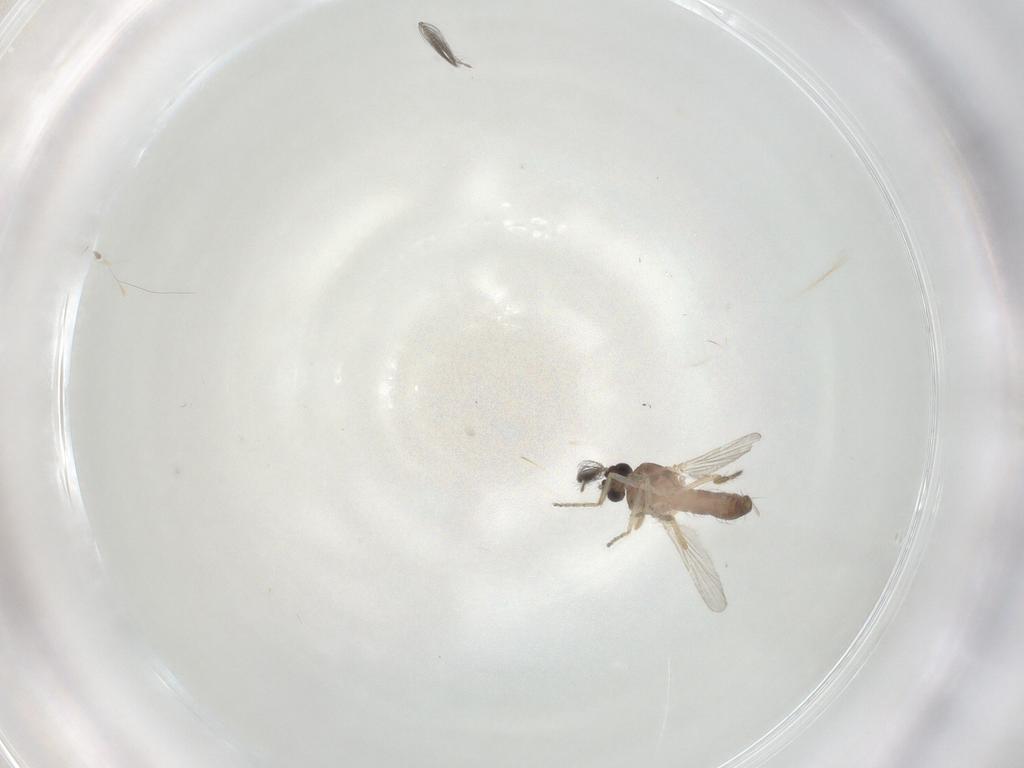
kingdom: Animalia
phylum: Arthropoda
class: Insecta
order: Diptera
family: Ceratopogonidae
